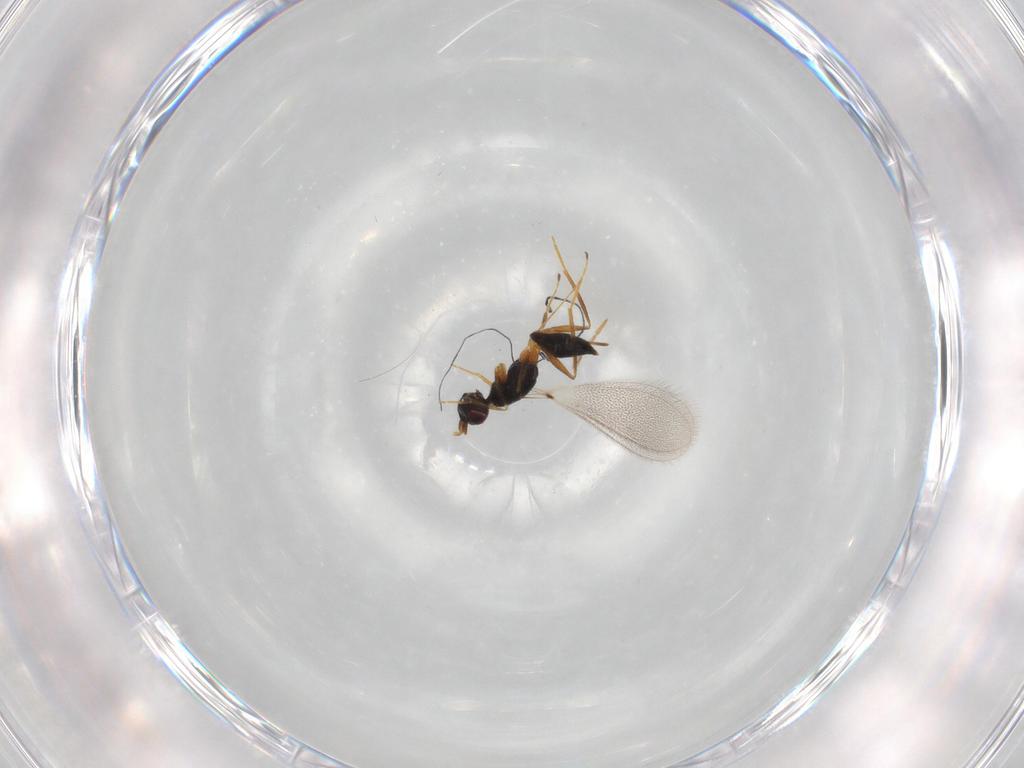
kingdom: Animalia
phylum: Arthropoda
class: Insecta
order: Hymenoptera
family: Mymaridae
